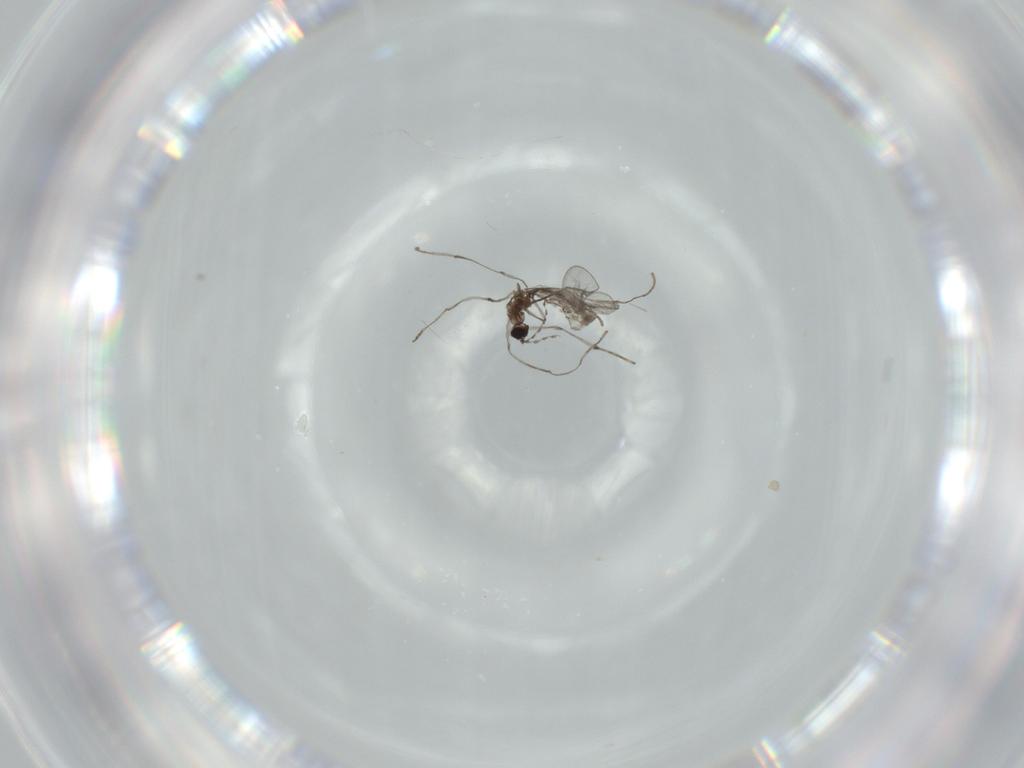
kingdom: Animalia
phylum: Arthropoda
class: Insecta
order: Diptera
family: Cecidomyiidae
